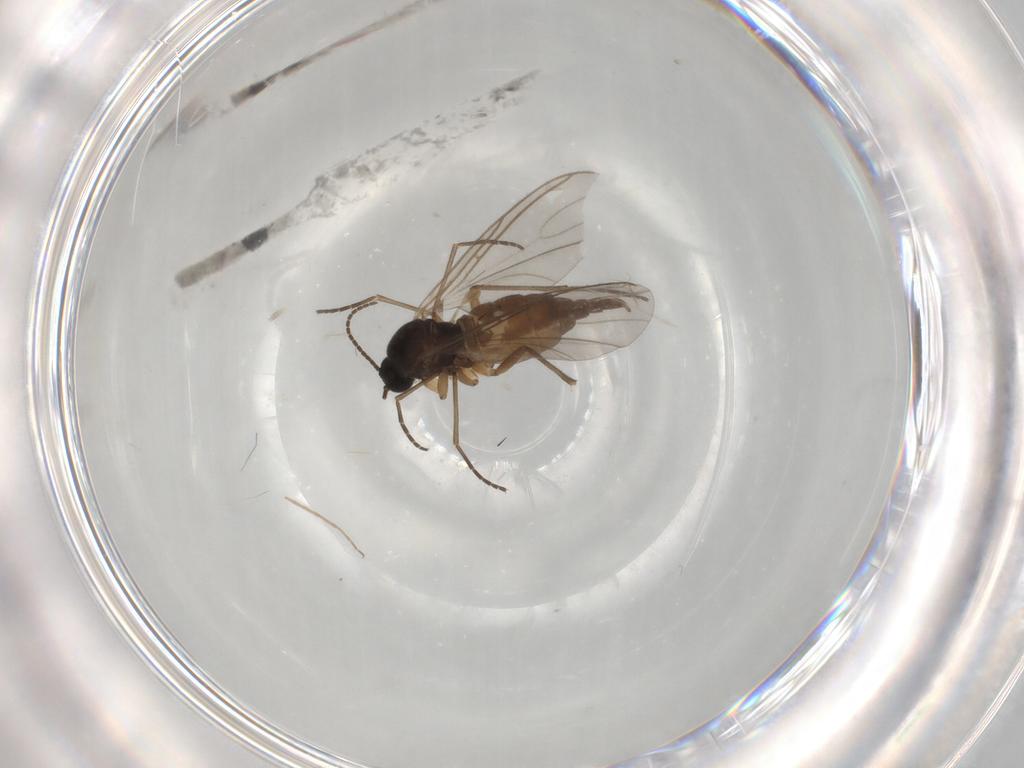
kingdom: Animalia
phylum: Arthropoda
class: Insecta
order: Diptera
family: Sciaridae
